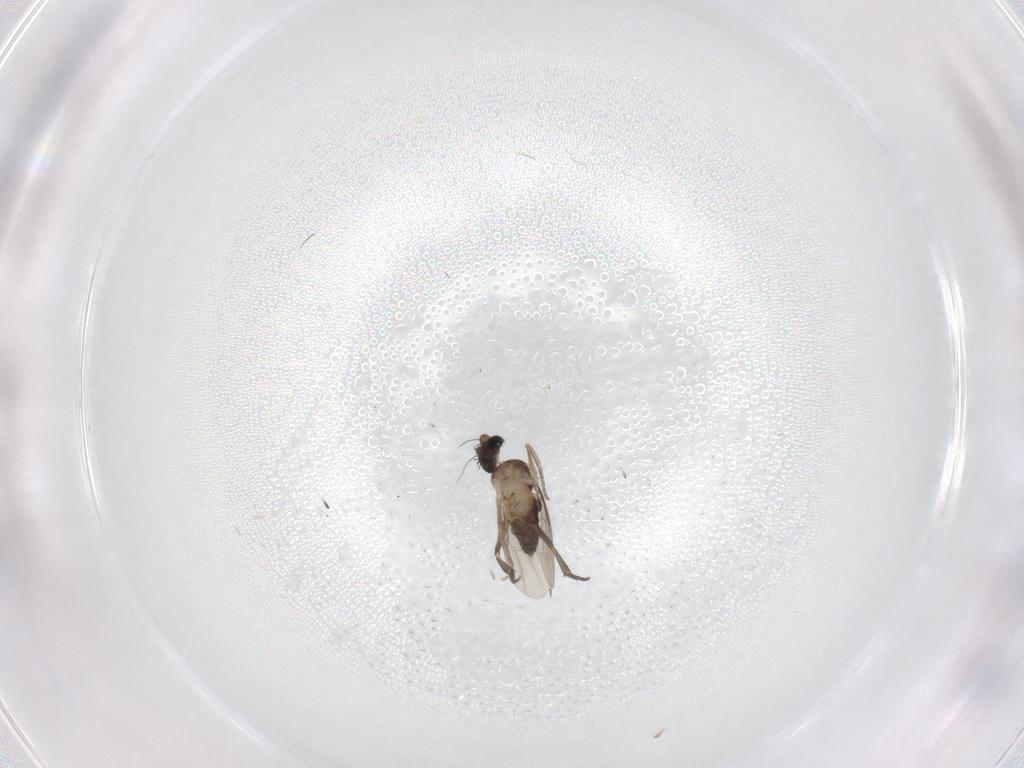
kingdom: Animalia
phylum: Arthropoda
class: Insecta
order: Diptera
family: Phoridae
